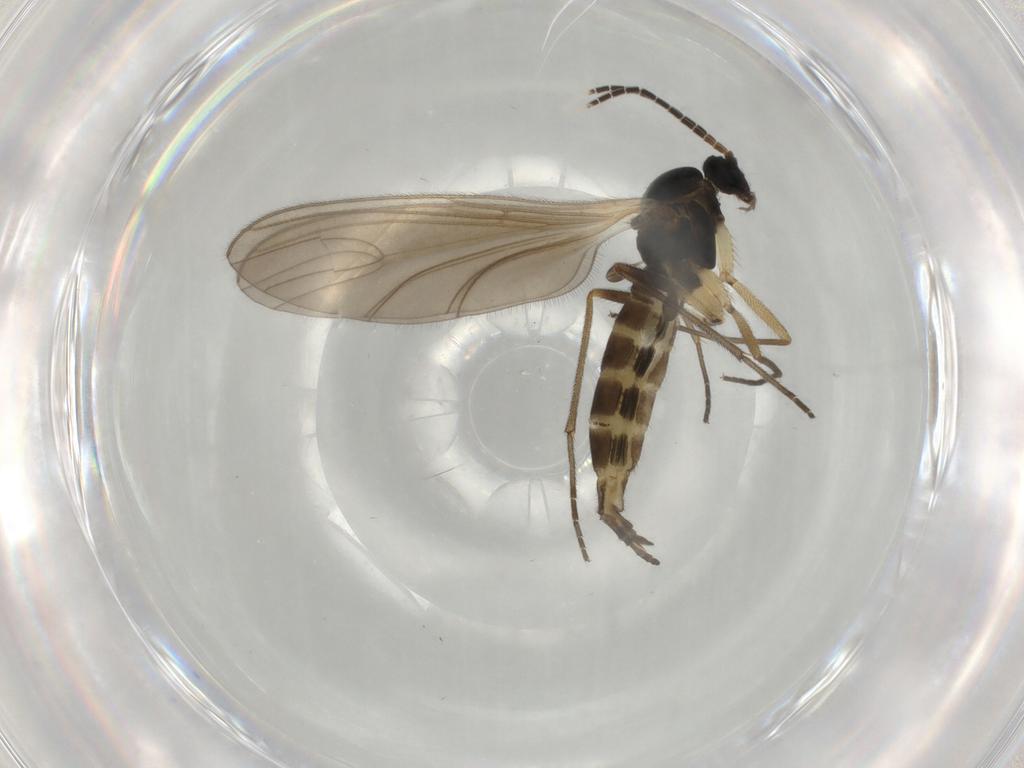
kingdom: Animalia
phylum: Arthropoda
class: Insecta
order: Diptera
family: Sciaridae
